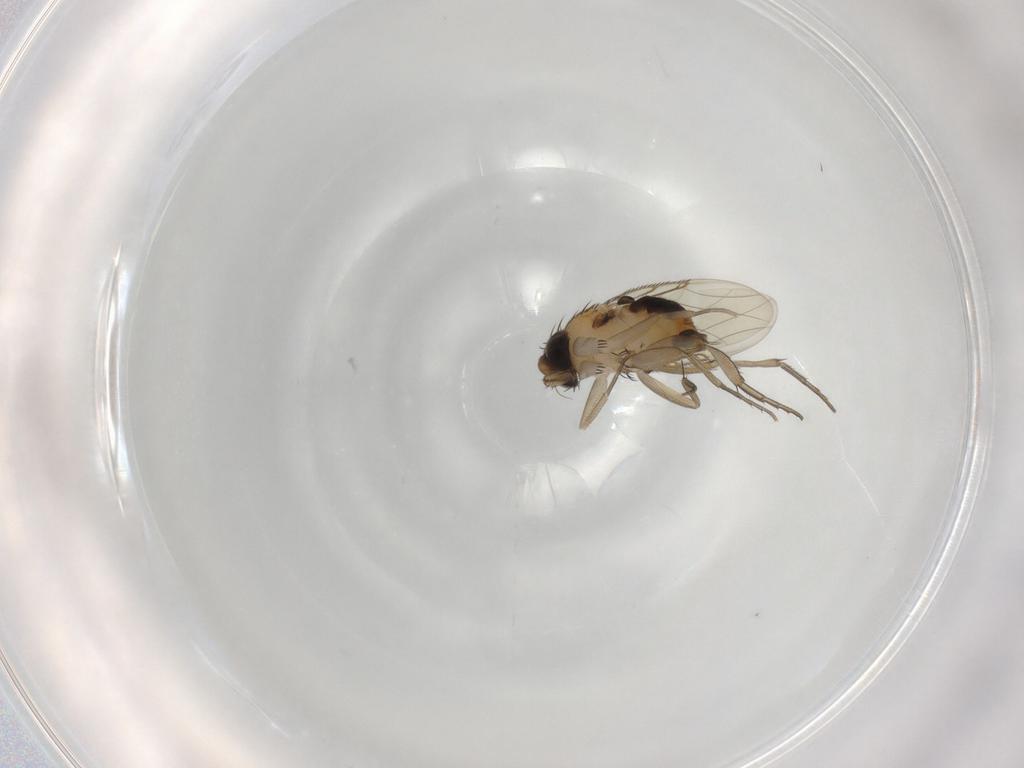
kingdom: Animalia
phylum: Arthropoda
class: Insecta
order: Diptera
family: Phoridae
